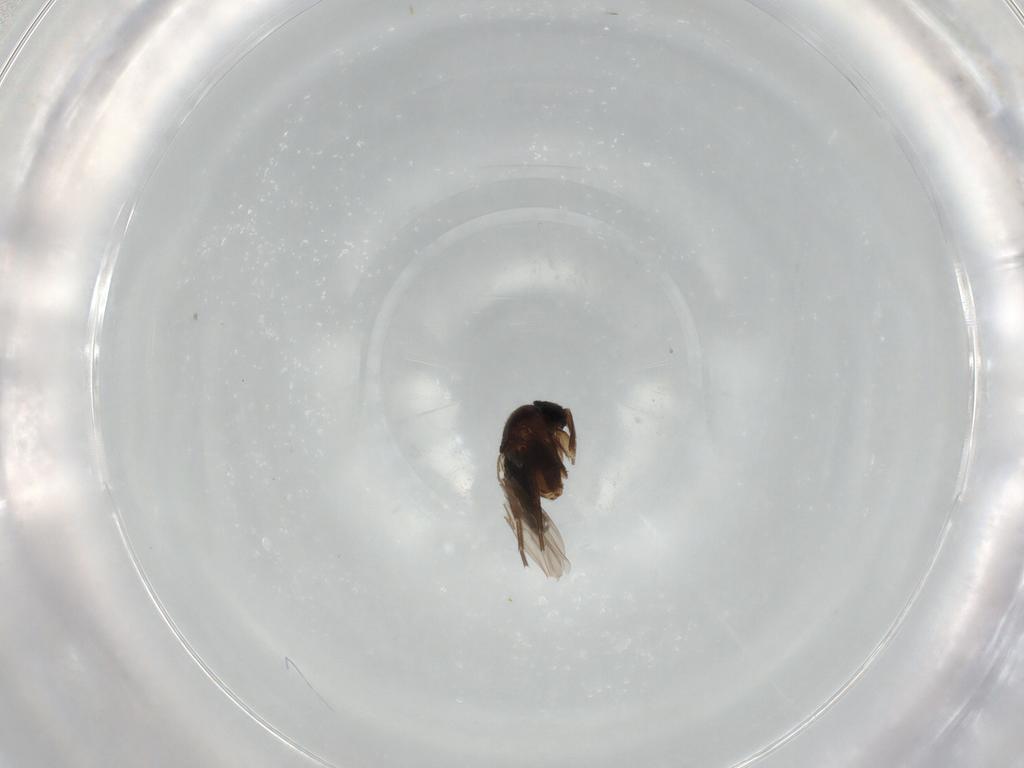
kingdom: Animalia
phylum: Arthropoda
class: Insecta
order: Diptera
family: Phoridae
